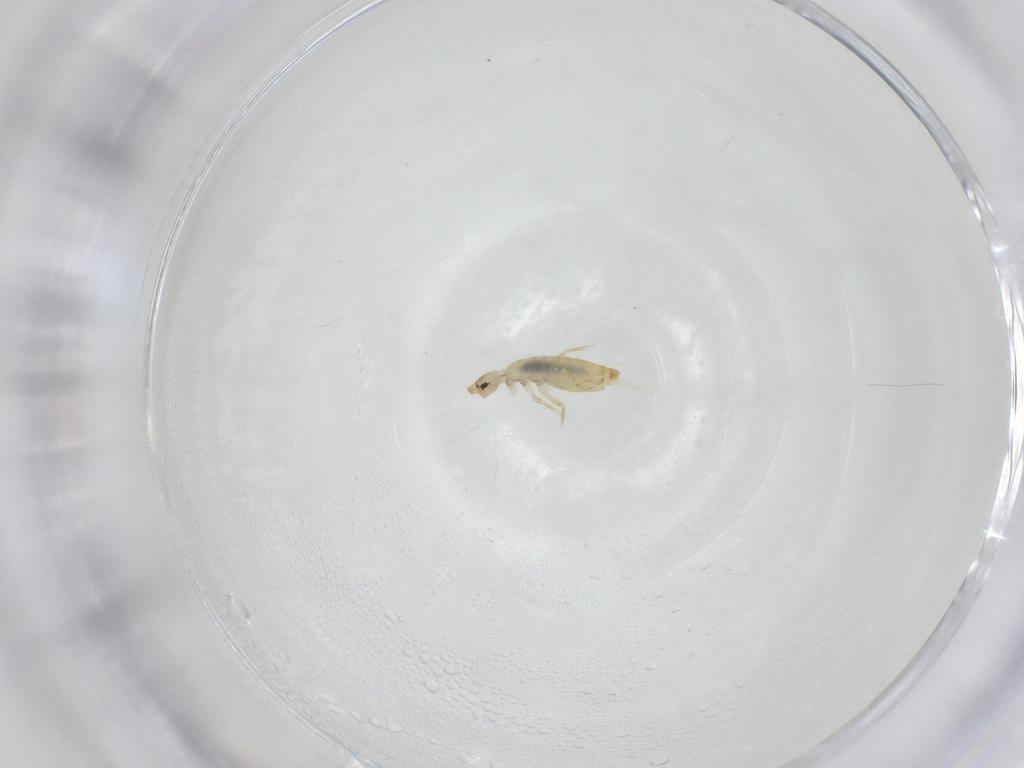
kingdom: Animalia
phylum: Arthropoda
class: Collembola
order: Entomobryomorpha
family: Entomobryidae
